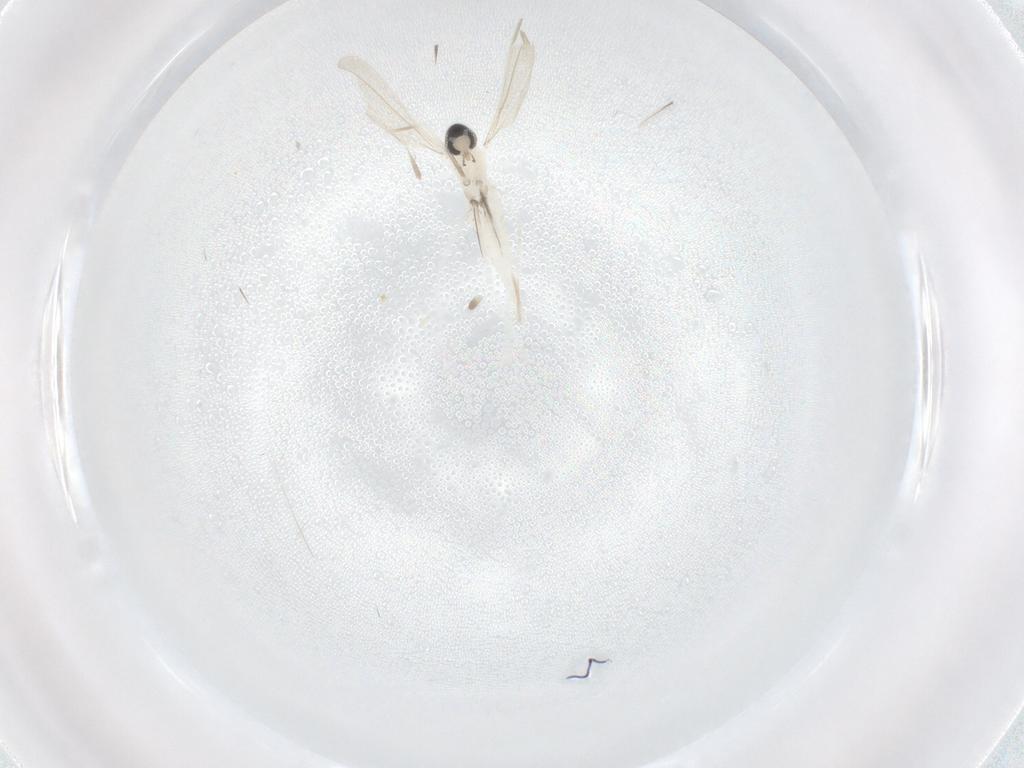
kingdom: Animalia
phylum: Arthropoda
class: Insecta
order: Diptera
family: Cecidomyiidae
